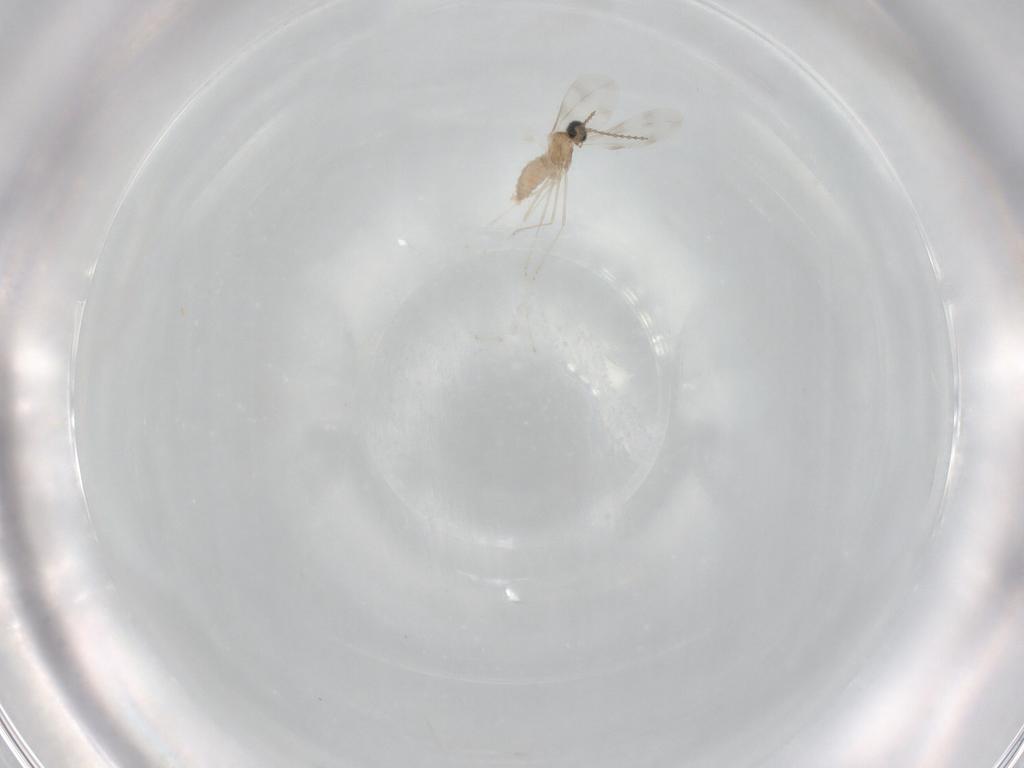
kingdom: Animalia
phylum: Arthropoda
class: Insecta
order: Diptera
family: Cecidomyiidae
